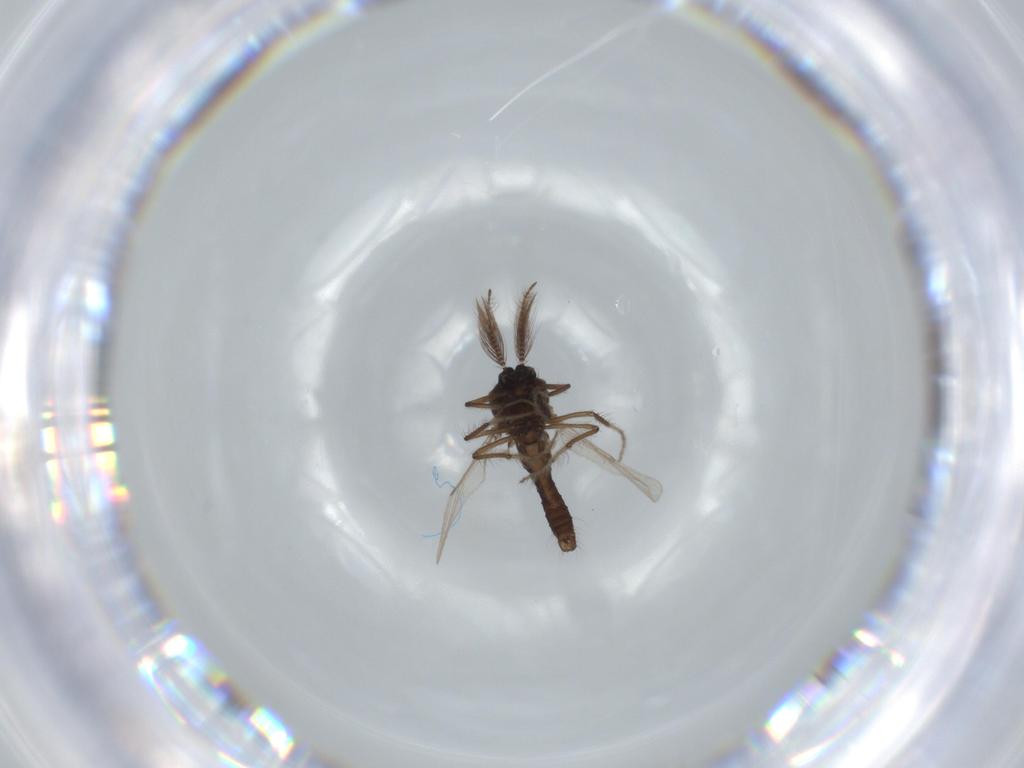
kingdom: Animalia
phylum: Arthropoda
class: Insecta
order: Diptera
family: Ceratopogonidae
